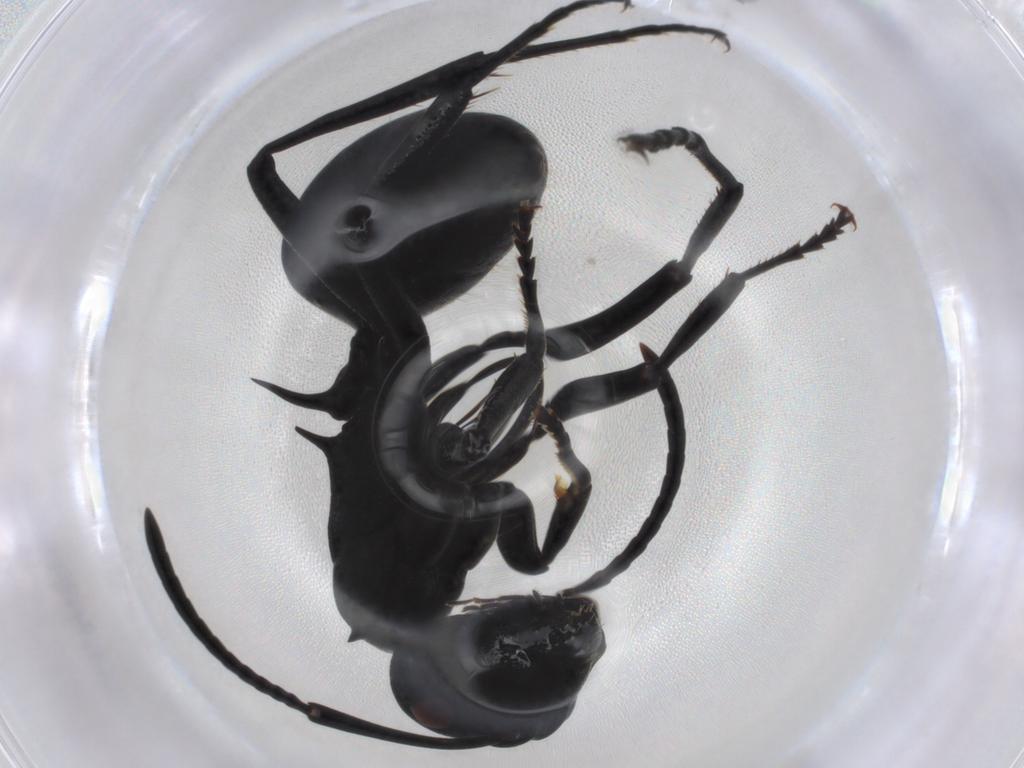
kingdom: Animalia
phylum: Arthropoda
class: Insecta
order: Hymenoptera
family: Formicidae
